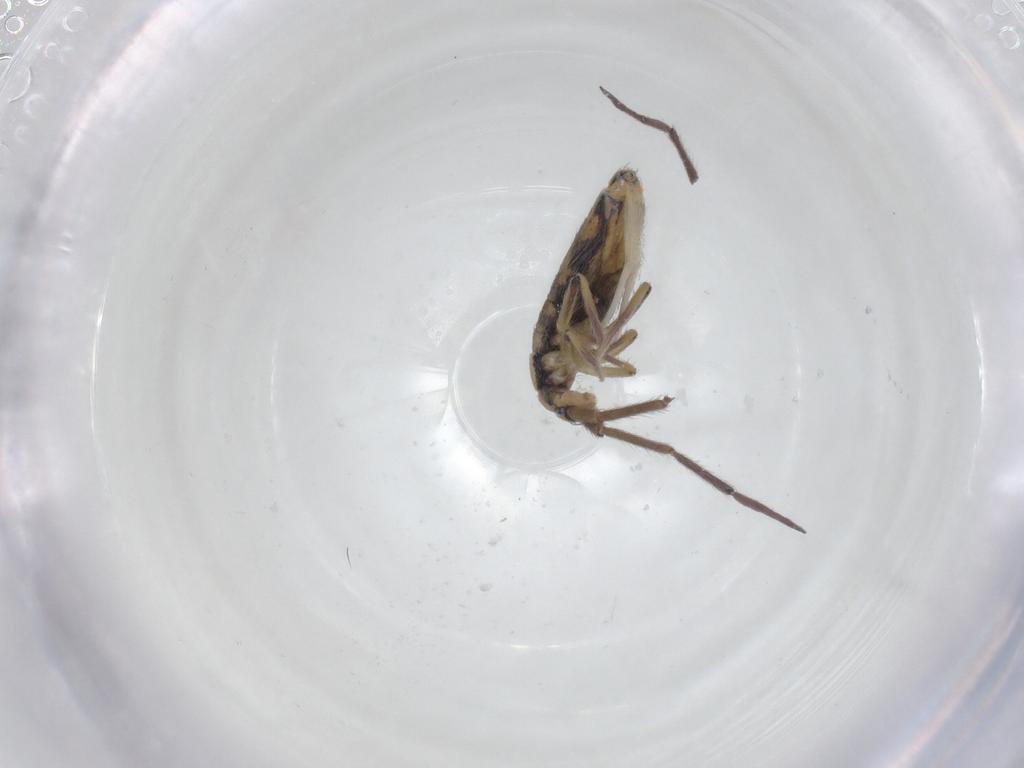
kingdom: Animalia
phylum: Arthropoda
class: Collembola
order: Entomobryomorpha
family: Entomobryidae
